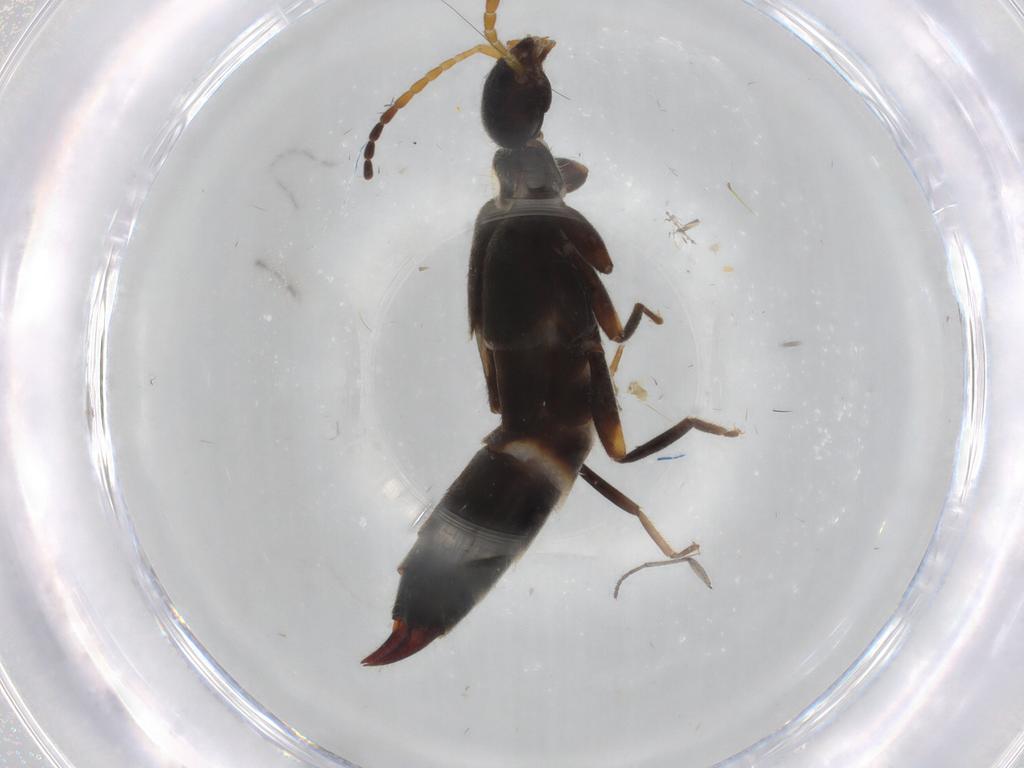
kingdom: Animalia
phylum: Arthropoda
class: Insecta
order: Dermaptera
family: Forficulidae
